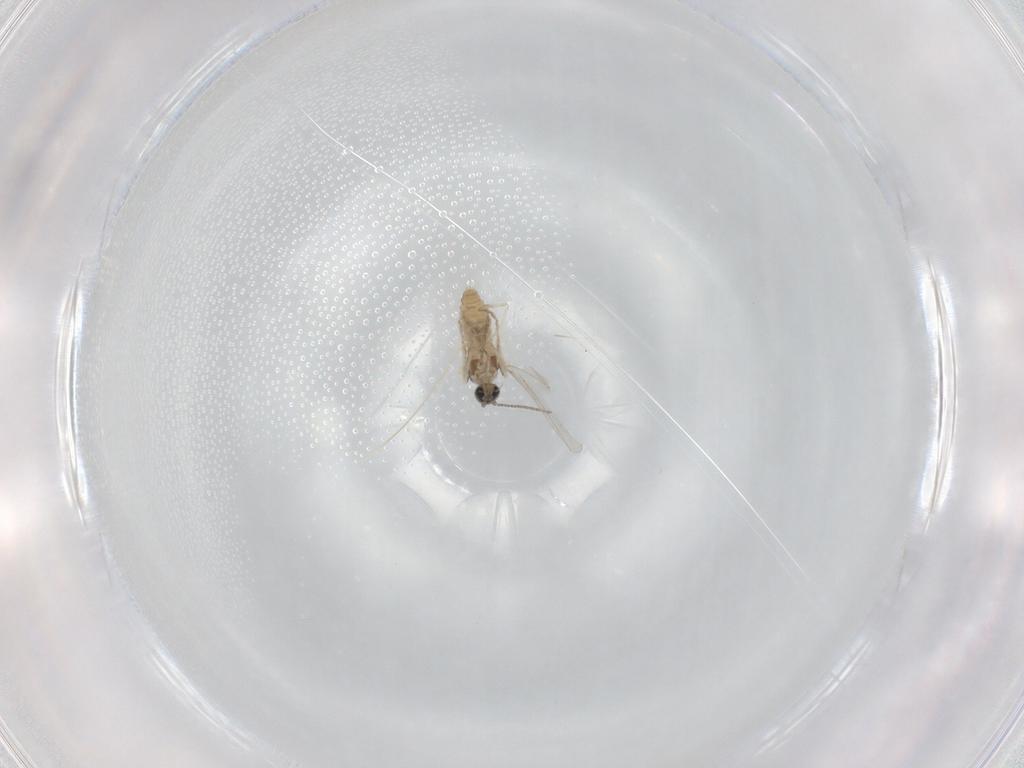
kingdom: Animalia
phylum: Arthropoda
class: Insecta
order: Diptera
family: Cecidomyiidae
